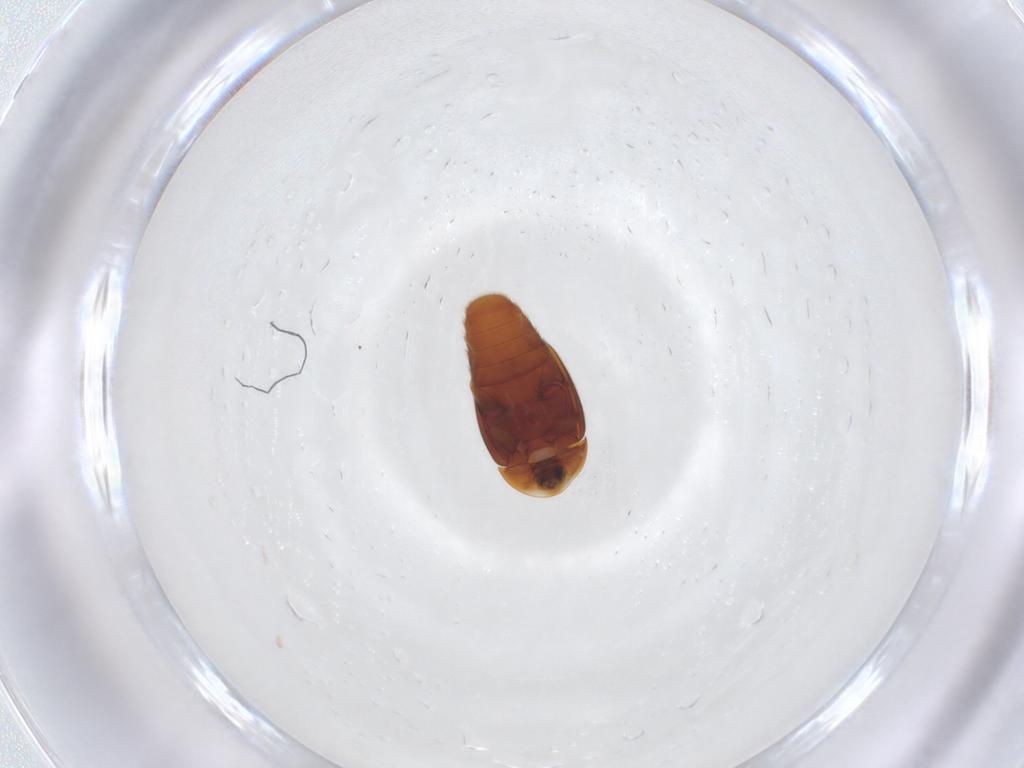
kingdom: Animalia
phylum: Arthropoda
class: Insecta
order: Coleoptera
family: Corylophidae
